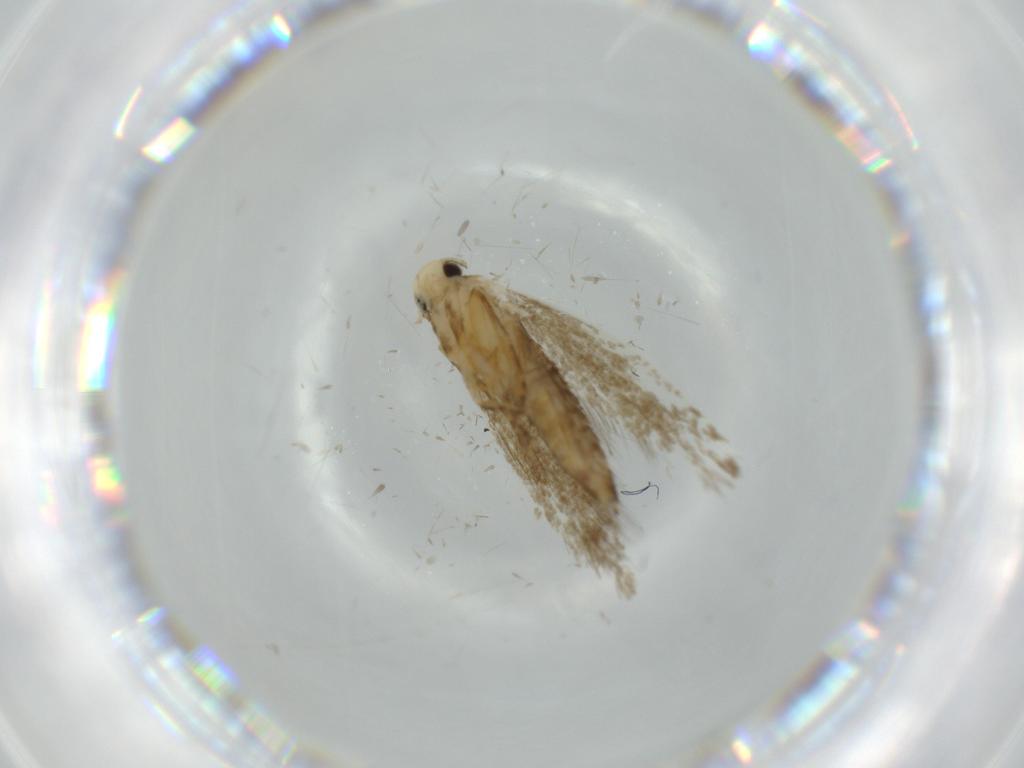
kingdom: Animalia
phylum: Arthropoda
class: Insecta
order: Lepidoptera
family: Tineidae
